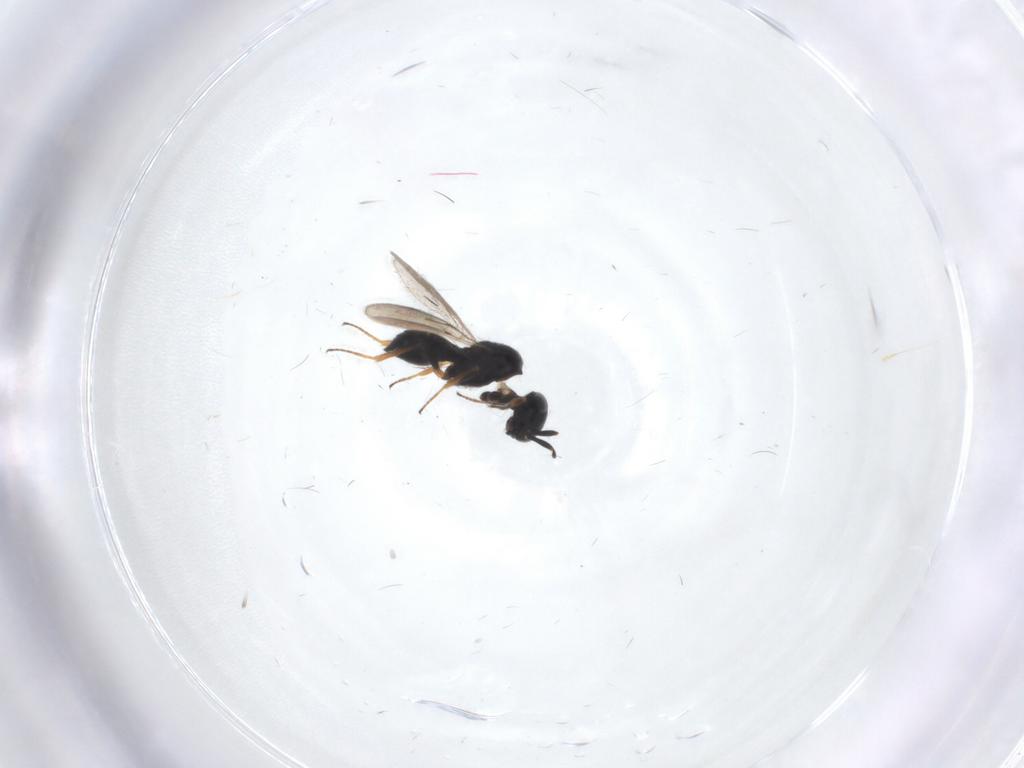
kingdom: Animalia
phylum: Arthropoda
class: Insecta
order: Hymenoptera
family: Scelionidae
